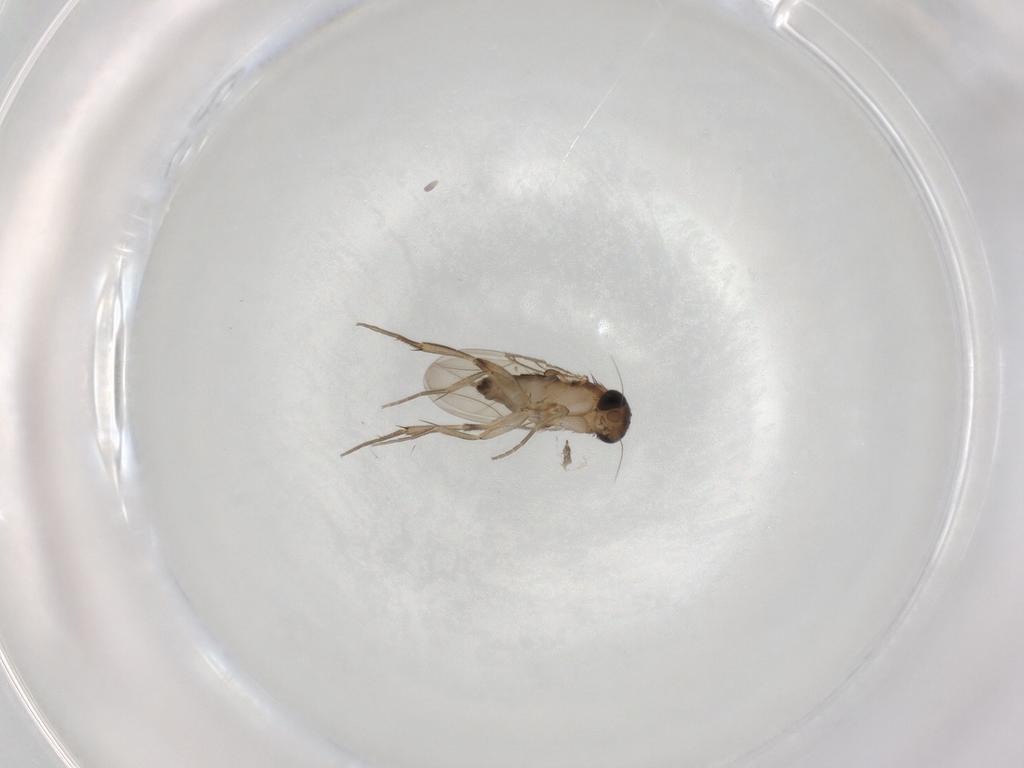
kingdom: Animalia
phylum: Arthropoda
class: Insecta
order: Diptera
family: Phoridae
